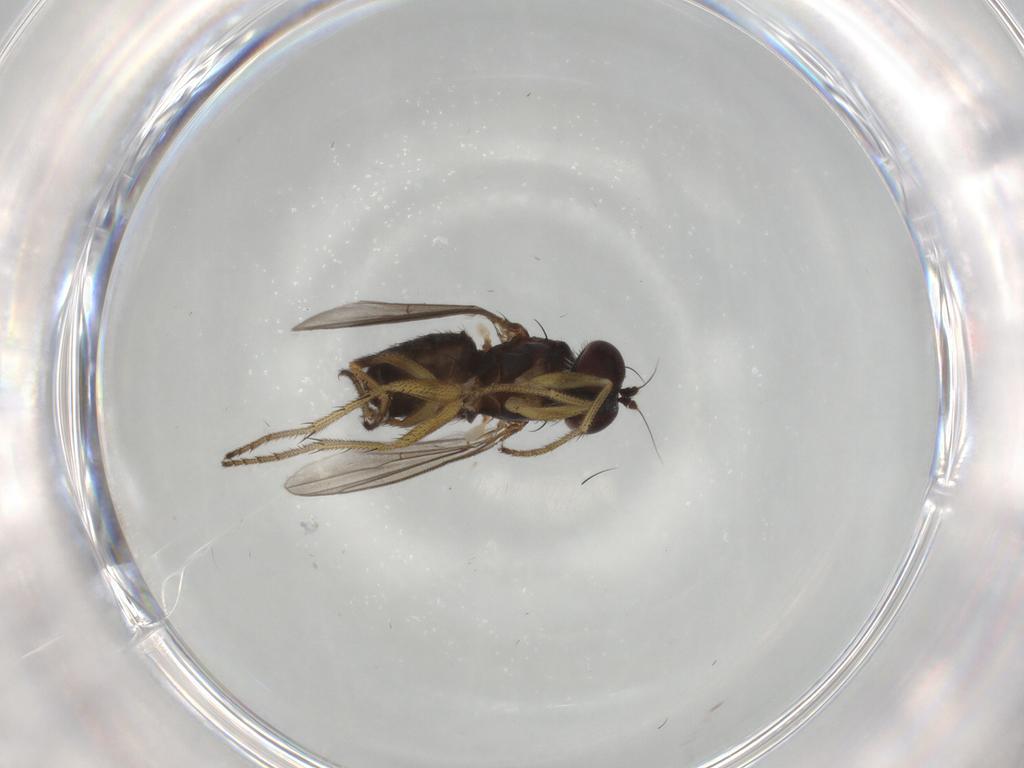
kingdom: Animalia
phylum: Arthropoda
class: Insecta
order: Diptera
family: Dolichopodidae
